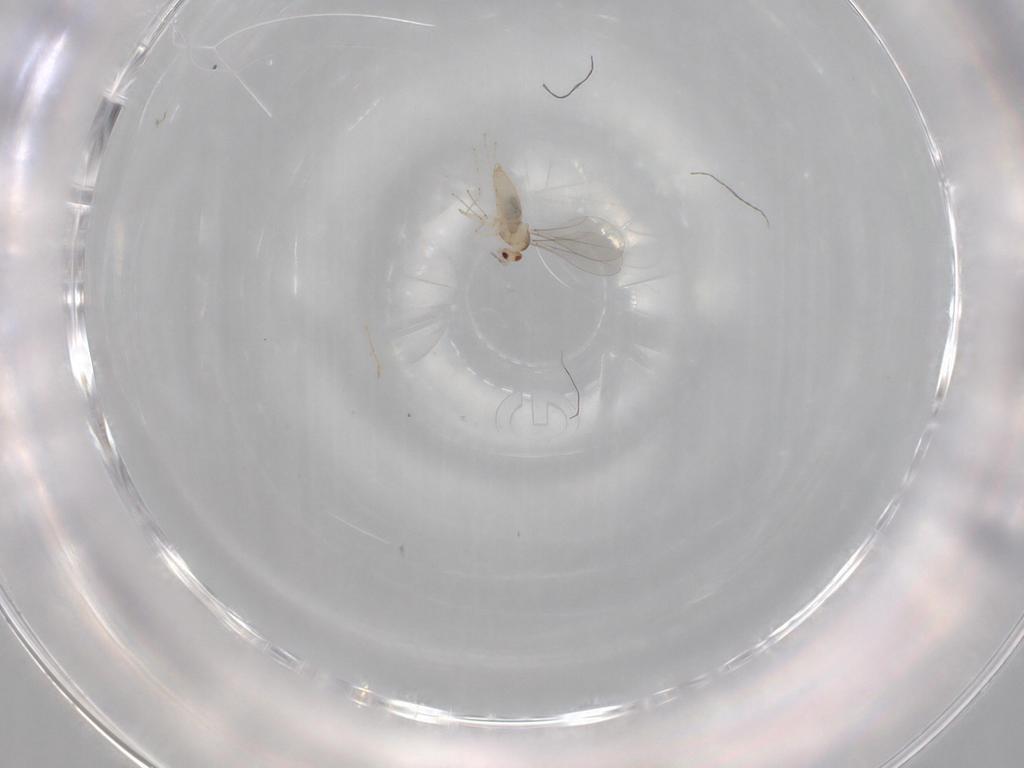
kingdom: Animalia
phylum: Arthropoda
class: Insecta
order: Diptera
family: Cecidomyiidae
